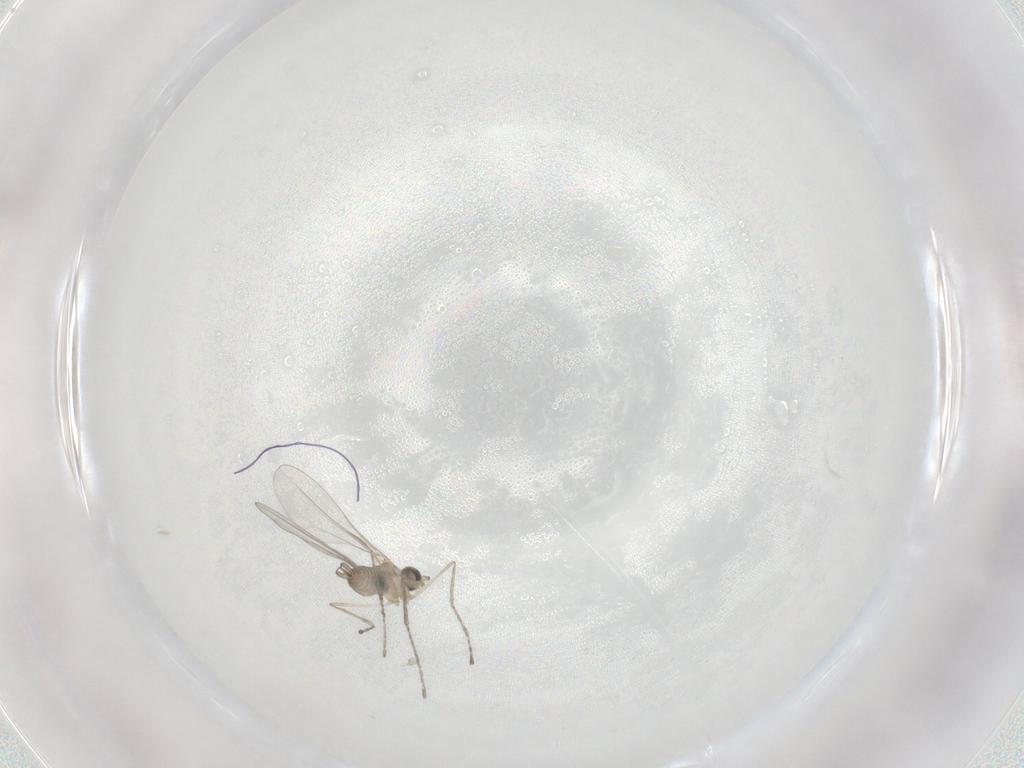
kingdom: Animalia
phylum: Arthropoda
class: Insecta
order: Diptera
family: Cecidomyiidae
